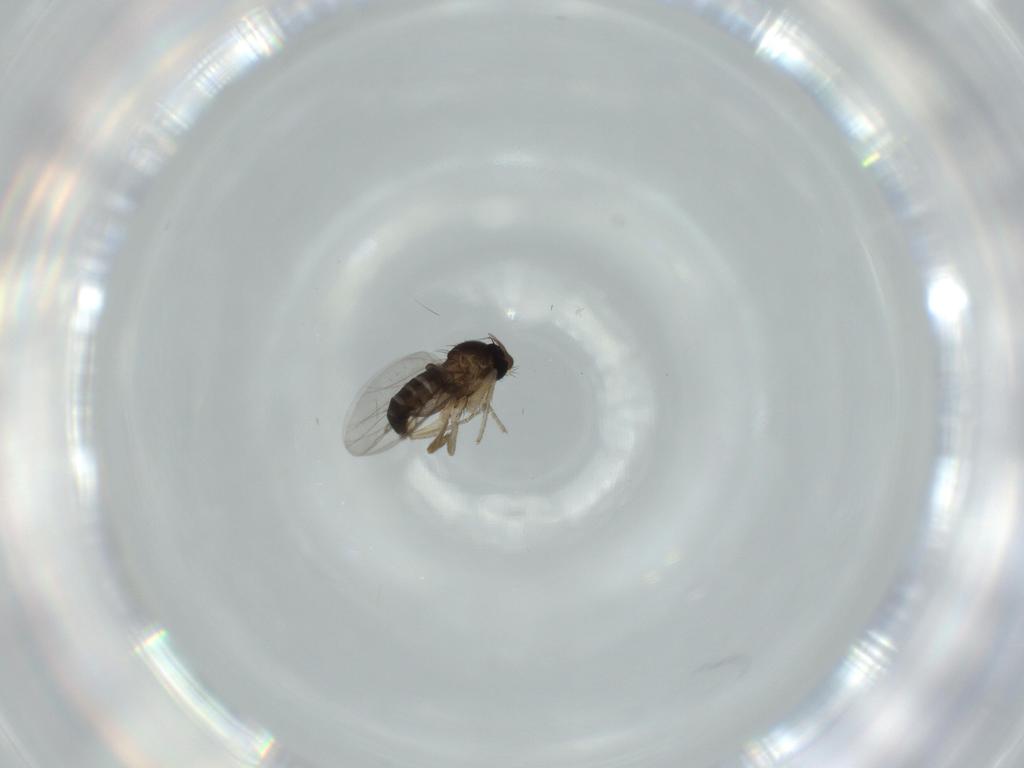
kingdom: Animalia
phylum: Arthropoda
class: Insecta
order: Diptera
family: Sciaridae
